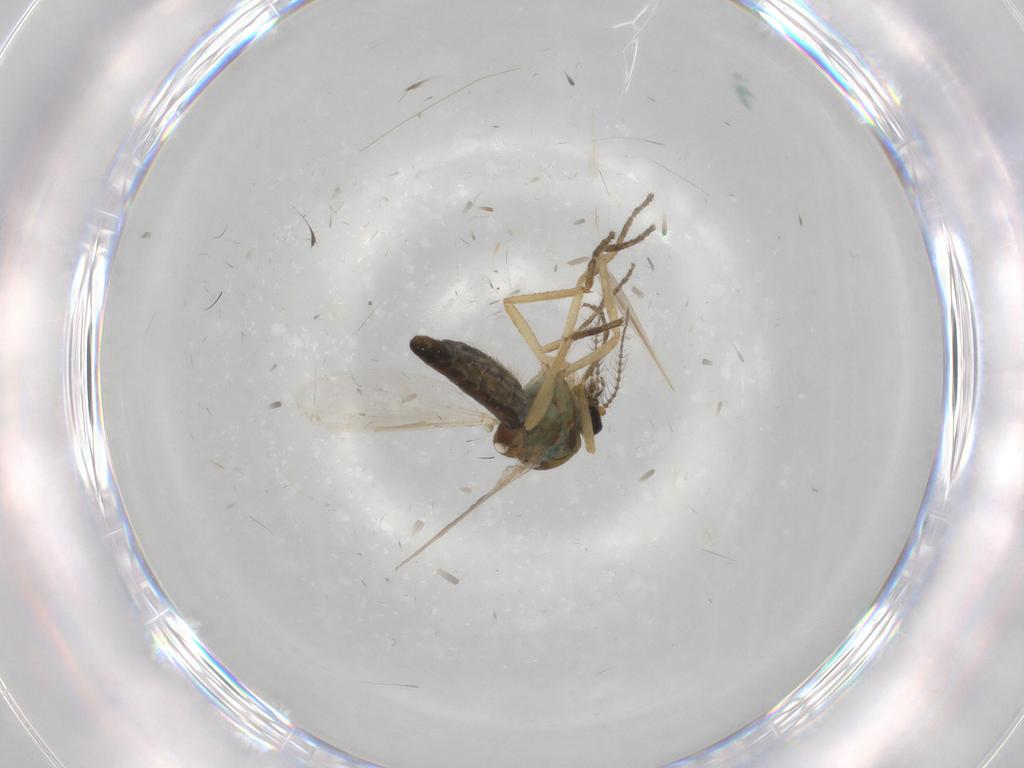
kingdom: Animalia
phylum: Arthropoda
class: Insecta
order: Diptera
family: Ceratopogonidae
